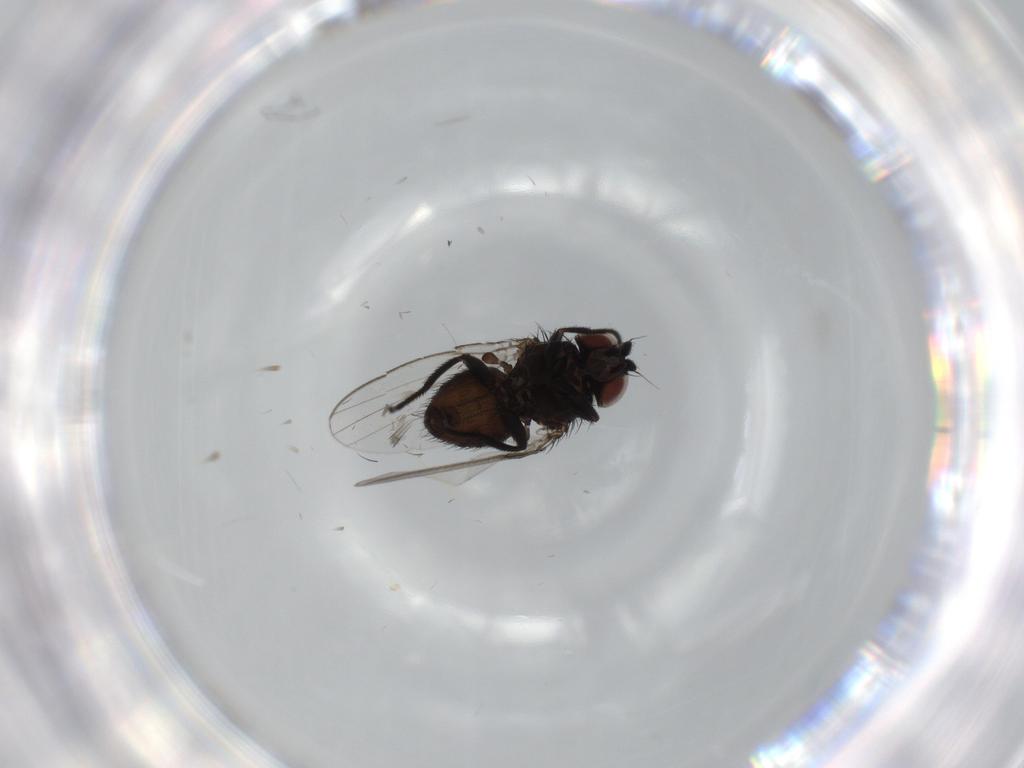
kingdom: Animalia
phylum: Arthropoda
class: Insecta
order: Diptera
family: Milichiidae
